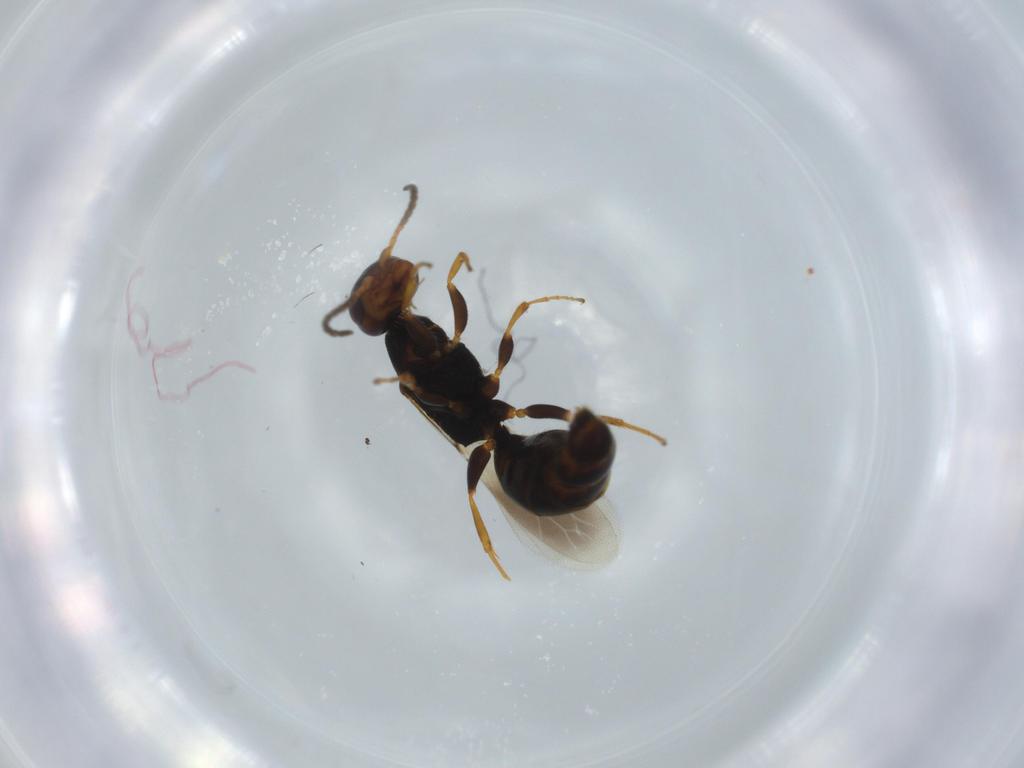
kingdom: Animalia
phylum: Arthropoda
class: Insecta
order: Hymenoptera
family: Bethylidae
